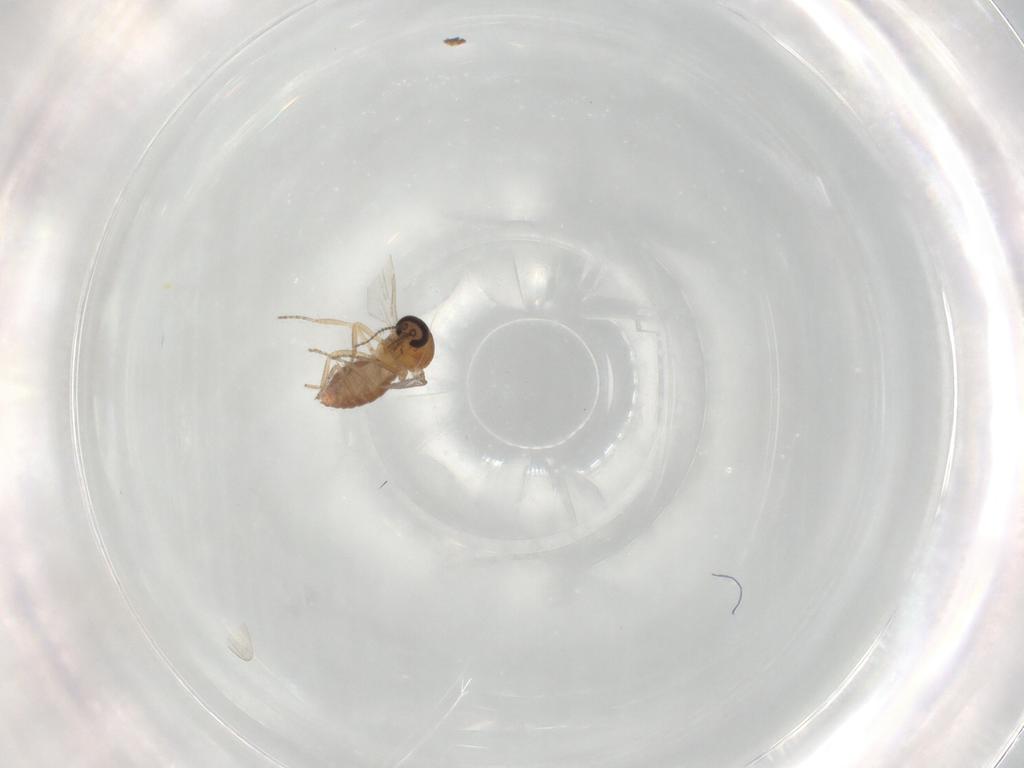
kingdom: Animalia
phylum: Arthropoda
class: Insecta
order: Diptera
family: Ceratopogonidae
